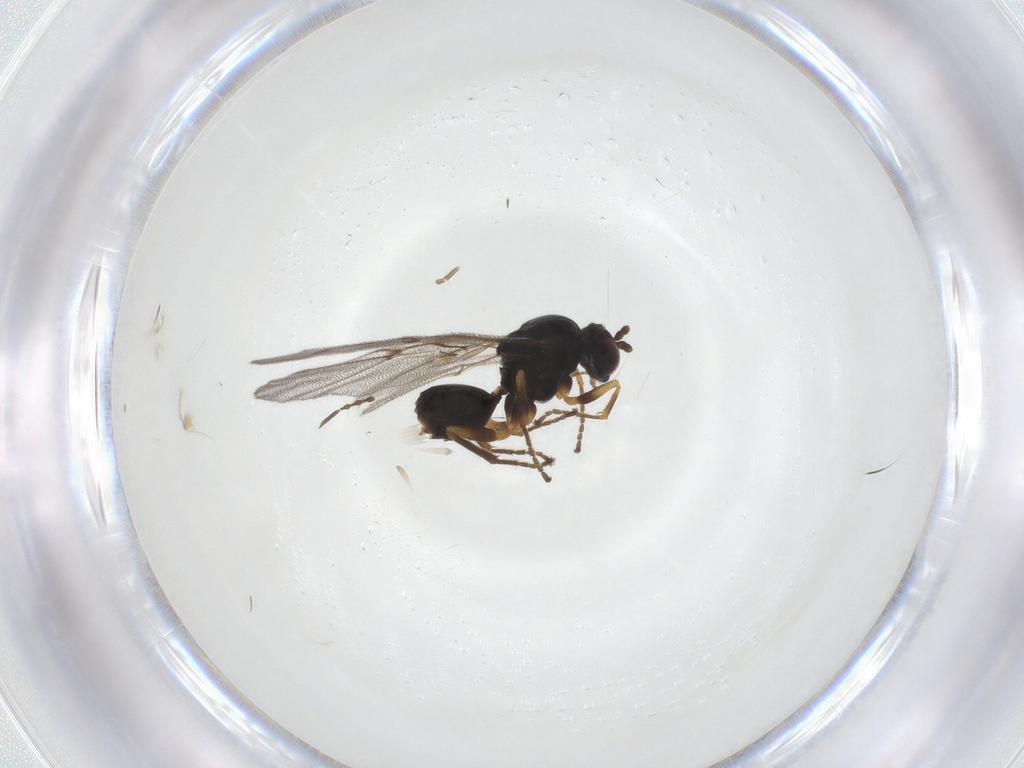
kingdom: Animalia
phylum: Arthropoda
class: Insecta
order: Hymenoptera
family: Cynipidae
